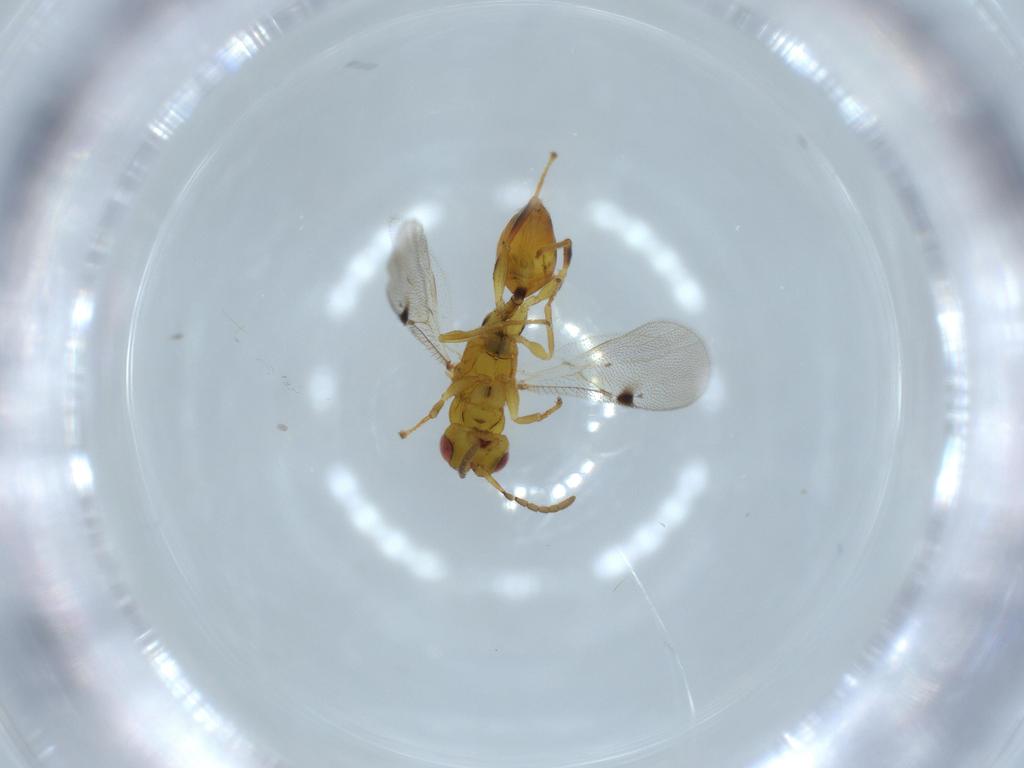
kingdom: Animalia
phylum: Arthropoda
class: Insecta
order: Hymenoptera
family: Eurytomidae
